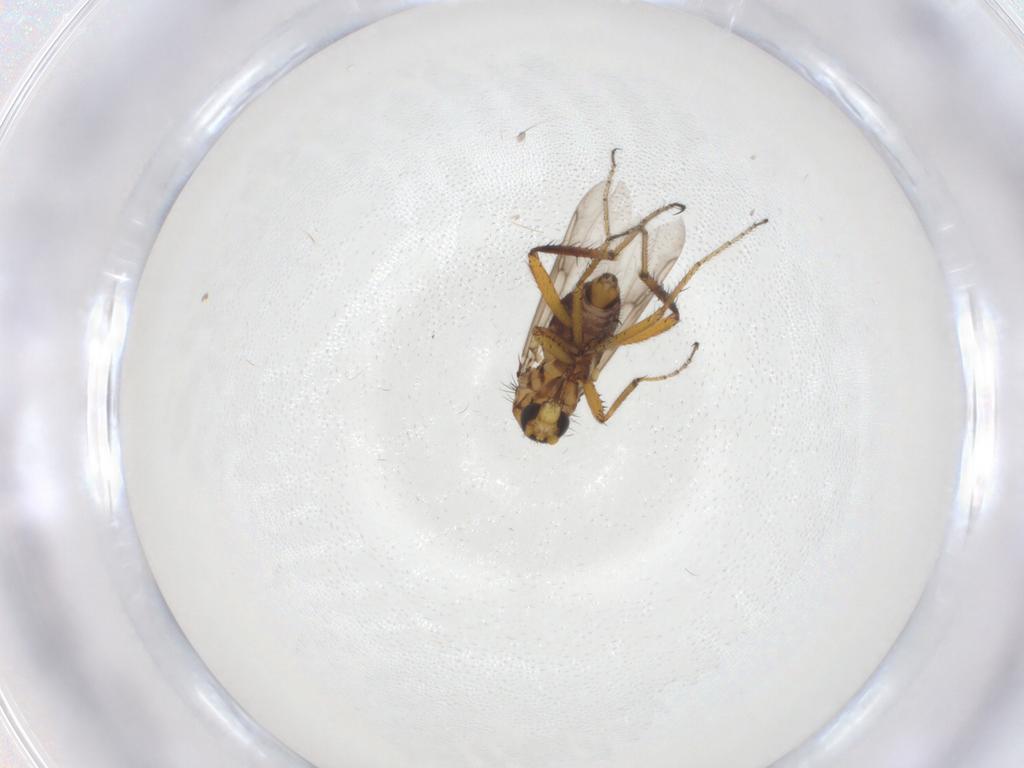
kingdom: Animalia
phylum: Arthropoda
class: Insecta
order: Diptera
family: Ceratopogonidae
